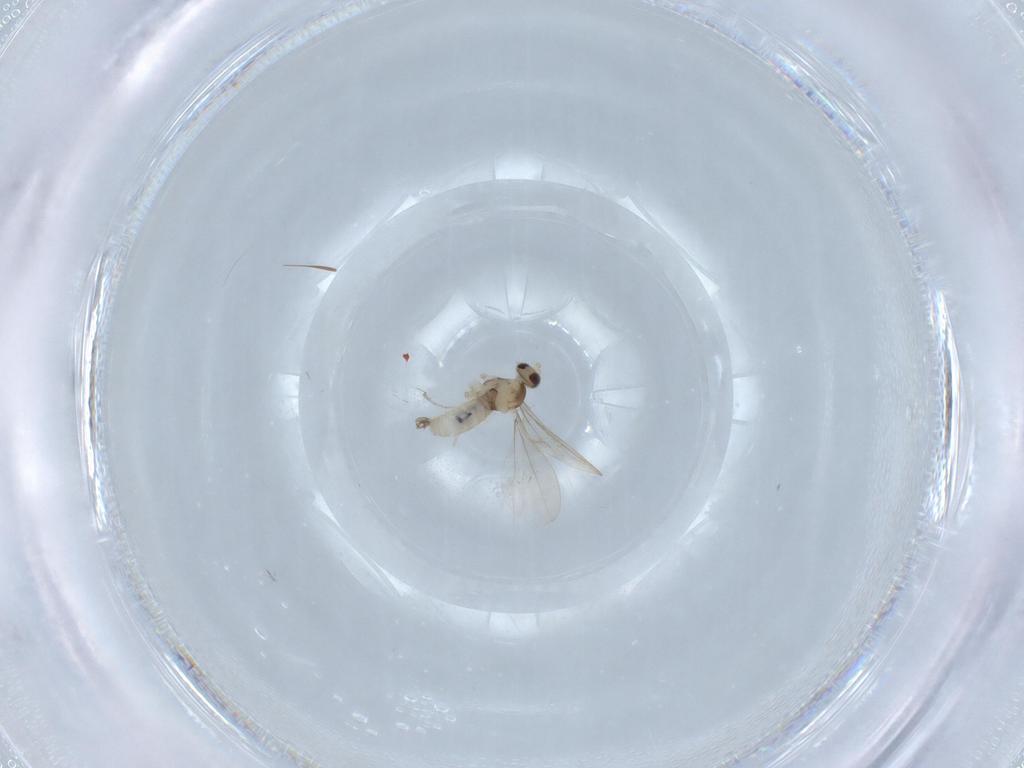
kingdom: Animalia
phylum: Arthropoda
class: Insecta
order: Diptera
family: Cecidomyiidae
